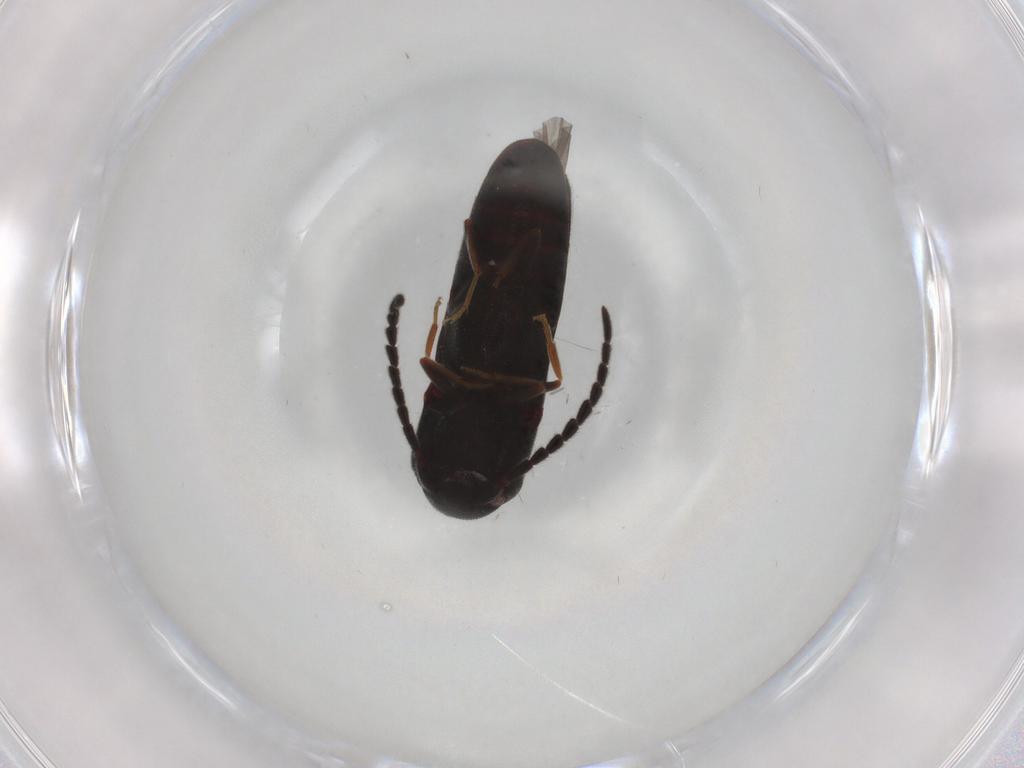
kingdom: Animalia
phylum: Arthropoda
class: Insecta
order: Coleoptera
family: Eucnemidae
